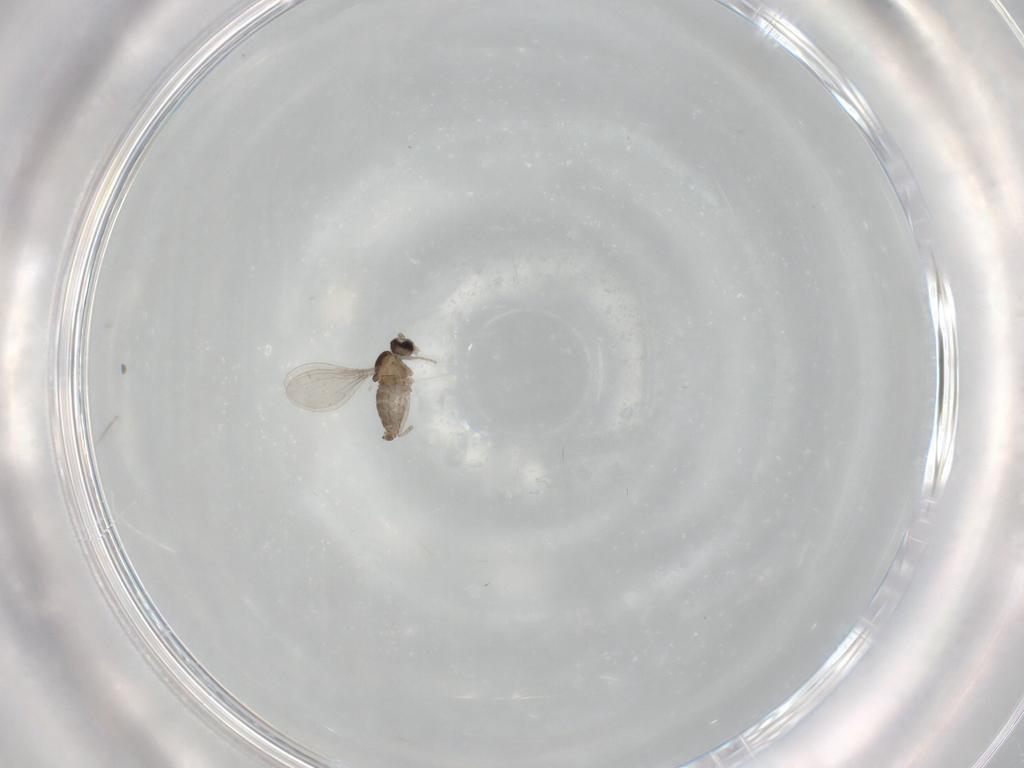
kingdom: Animalia
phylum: Arthropoda
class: Insecta
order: Diptera
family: Cecidomyiidae
